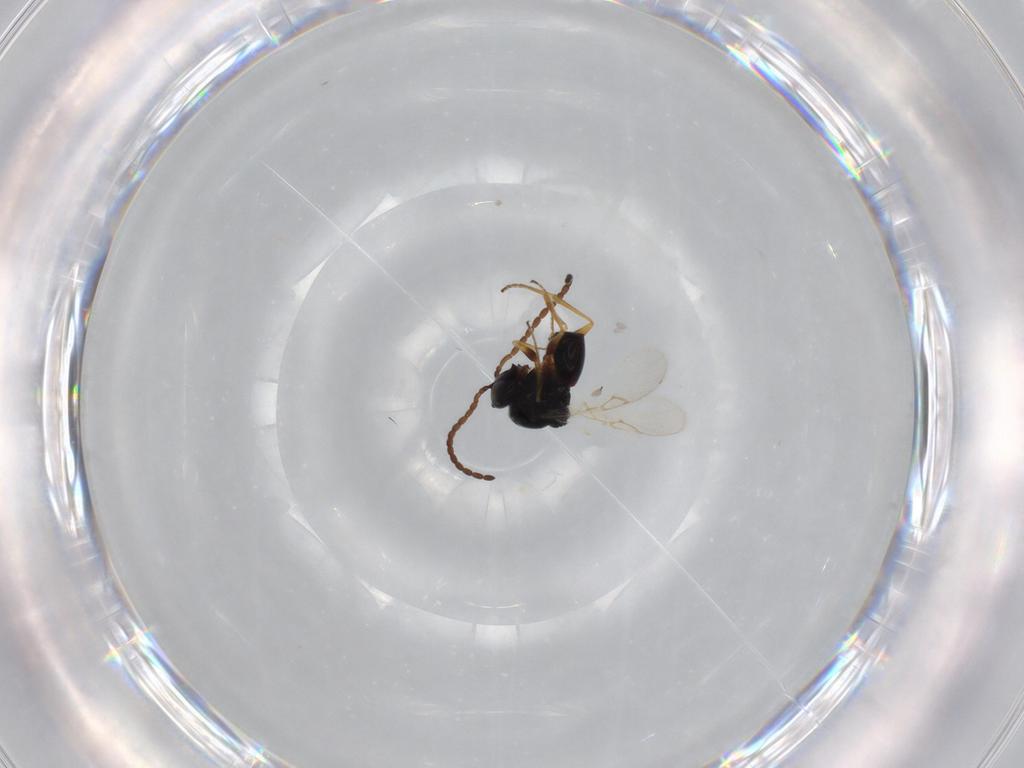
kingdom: Animalia
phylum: Arthropoda
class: Insecta
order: Hymenoptera
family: Figitidae
